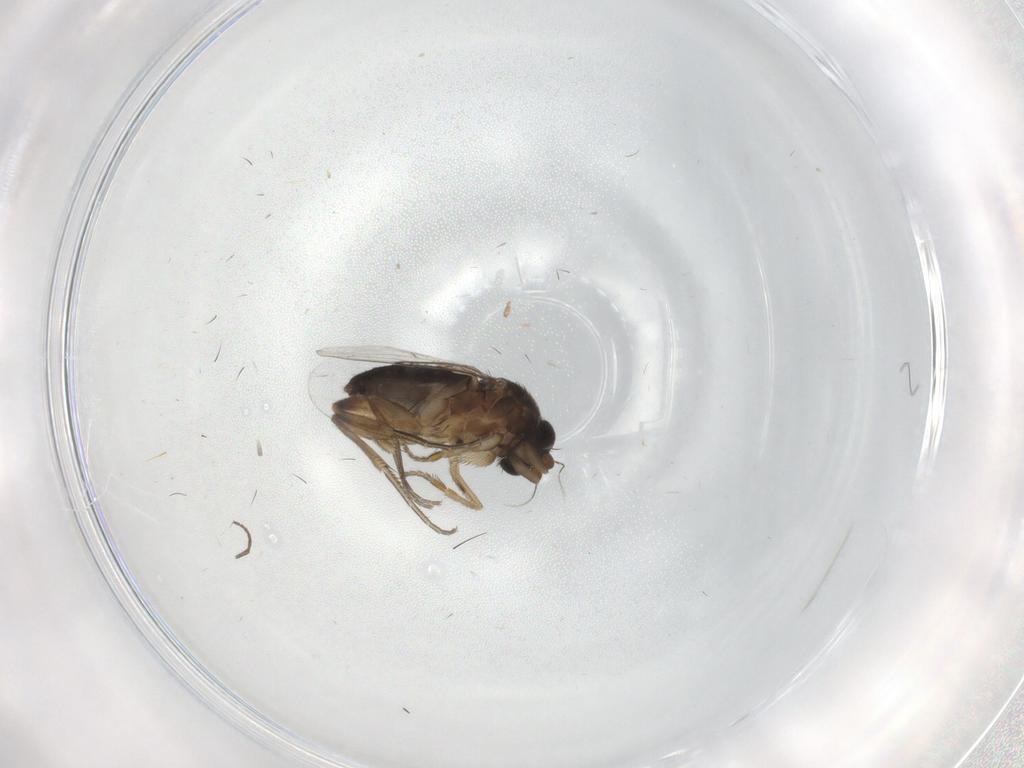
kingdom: Animalia
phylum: Arthropoda
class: Insecta
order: Diptera
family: Phoridae
